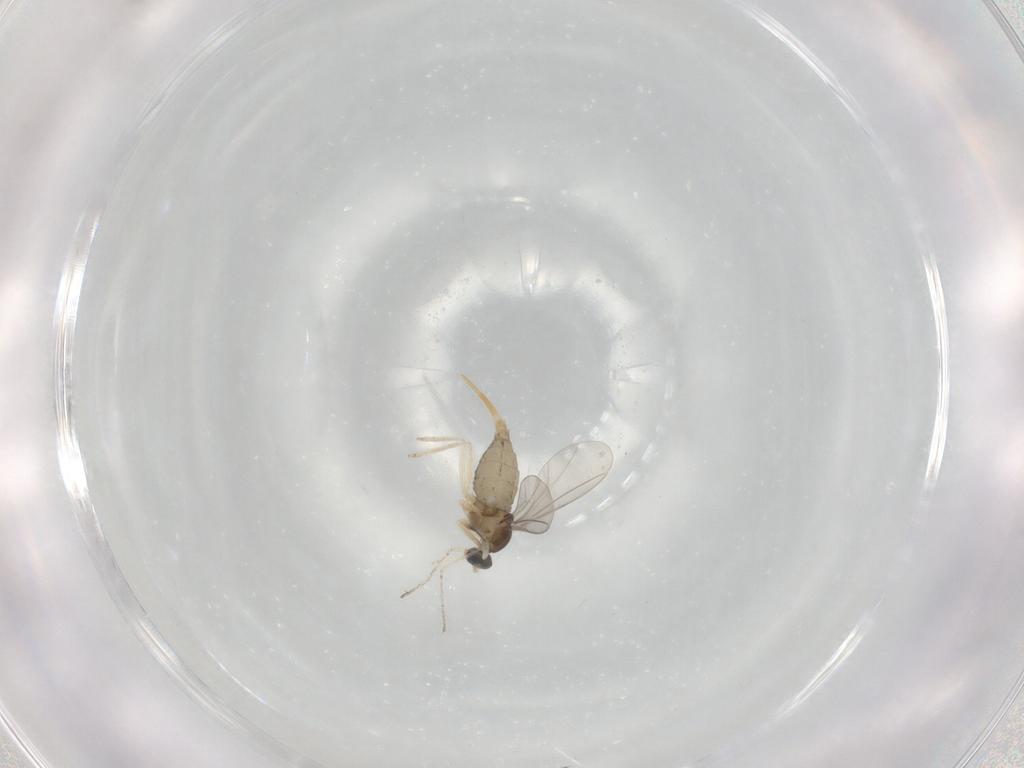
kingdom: Animalia
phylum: Arthropoda
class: Insecta
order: Diptera
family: Cecidomyiidae
